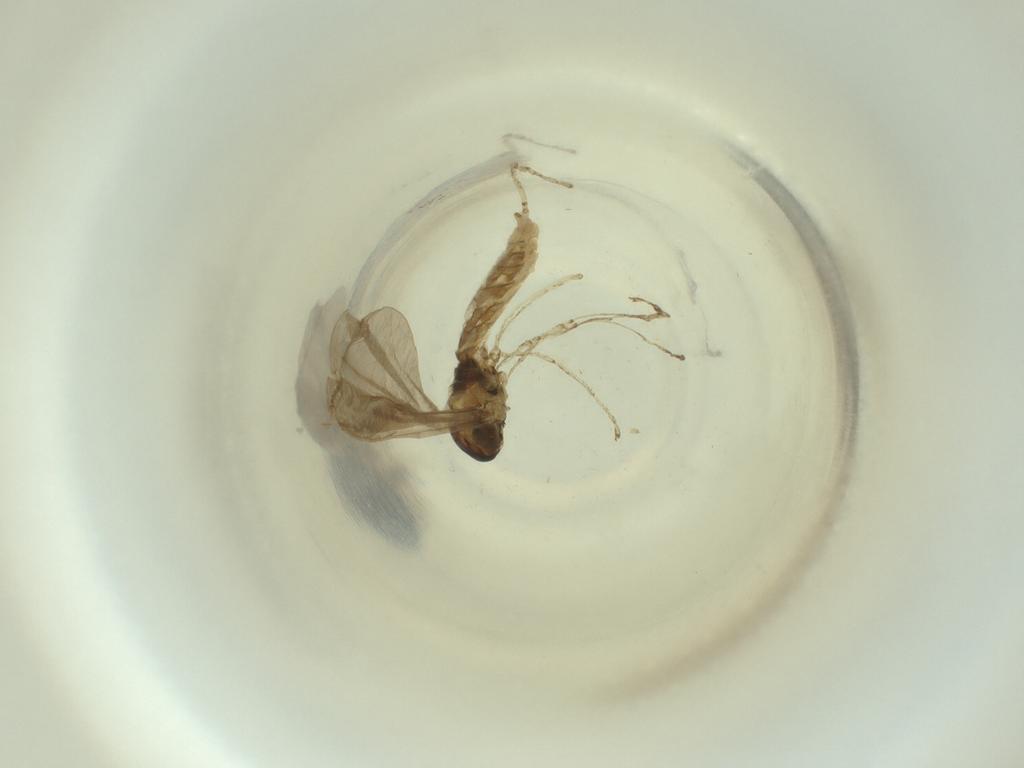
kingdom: Animalia
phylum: Arthropoda
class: Insecta
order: Diptera
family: Cecidomyiidae
